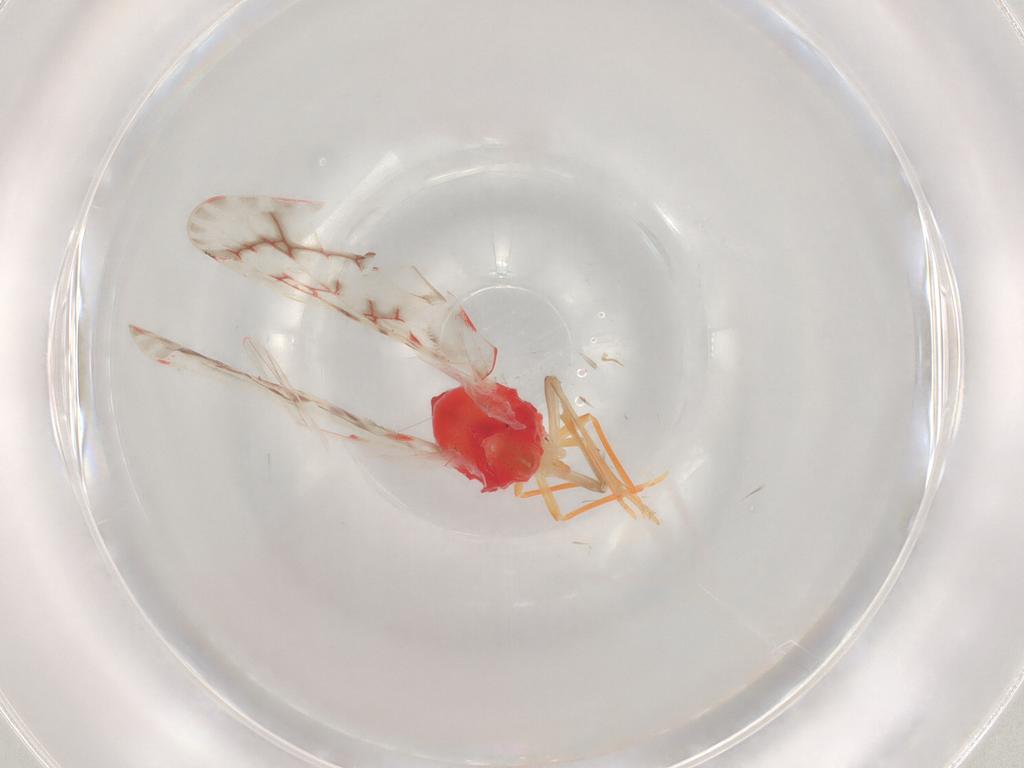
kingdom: Animalia
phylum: Arthropoda
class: Insecta
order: Hemiptera
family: Derbidae
